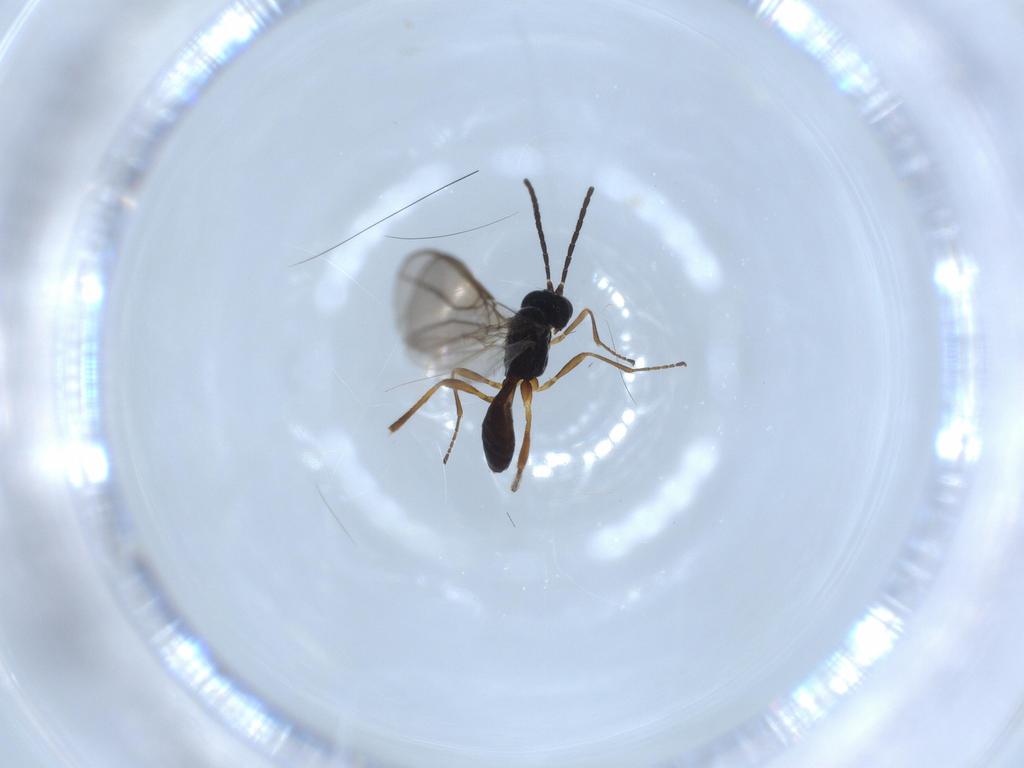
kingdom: Animalia
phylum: Arthropoda
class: Insecta
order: Hymenoptera
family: Braconidae
